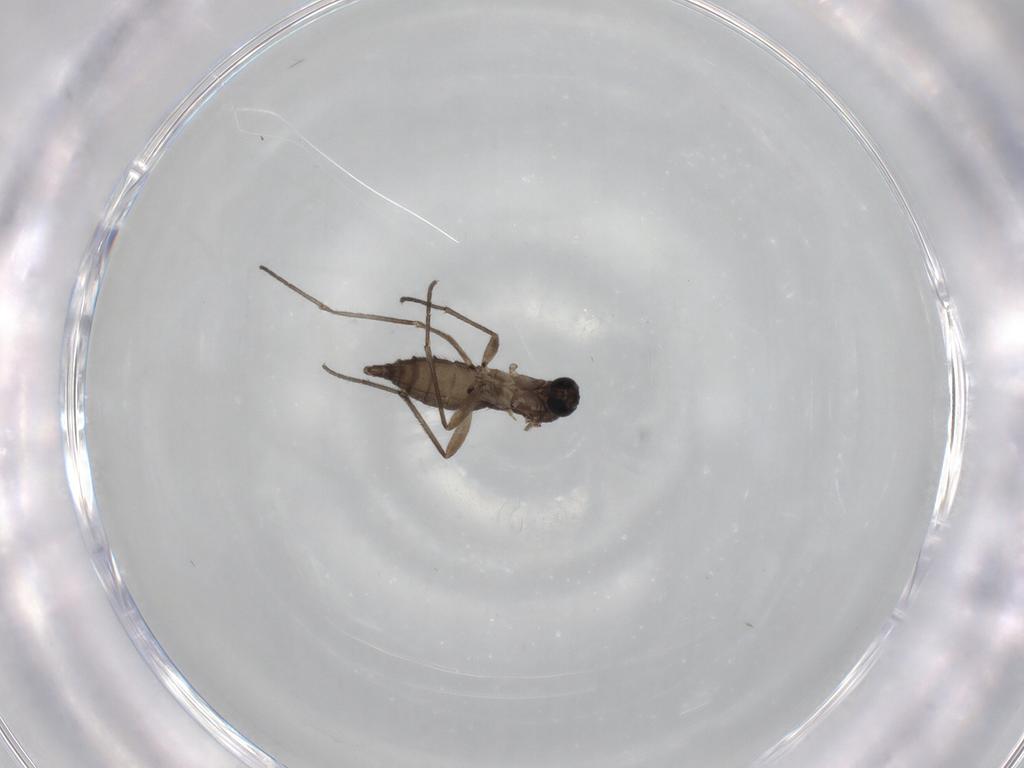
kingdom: Animalia
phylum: Arthropoda
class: Insecta
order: Diptera
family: Sciaridae
